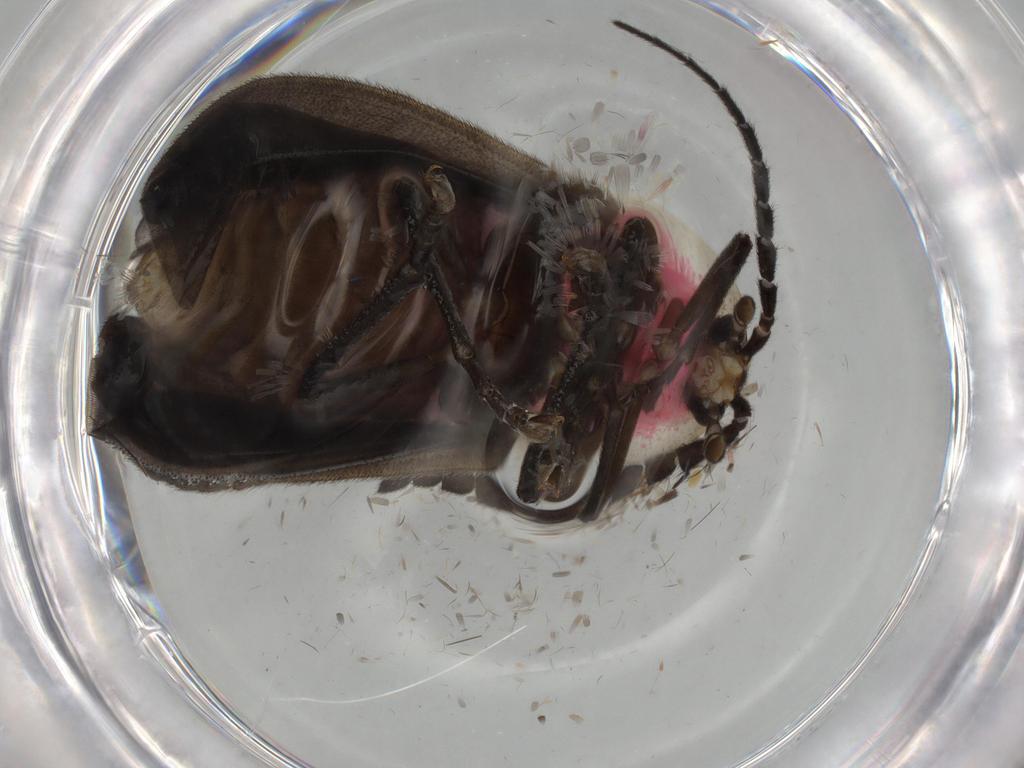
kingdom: Animalia
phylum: Arthropoda
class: Insecta
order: Coleoptera
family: Lampyridae
